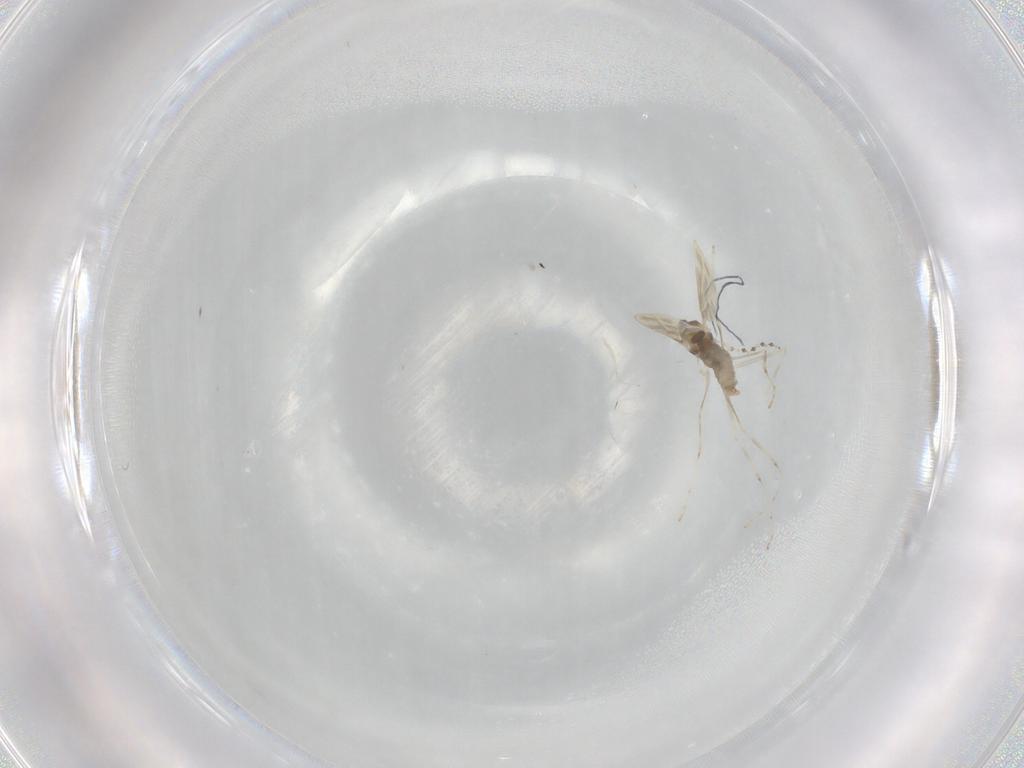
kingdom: Animalia
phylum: Arthropoda
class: Insecta
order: Diptera
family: Cecidomyiidae
